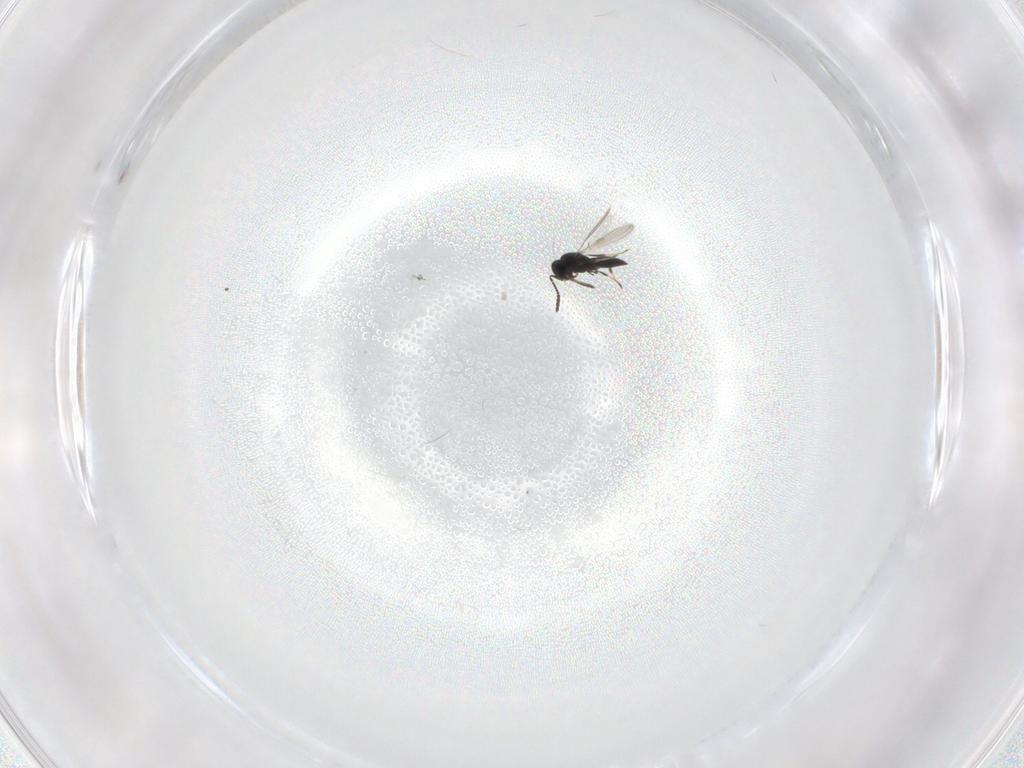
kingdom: Animalia
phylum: Arthropoda
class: Insecta
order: Hymenoptera
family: Scelionidae
